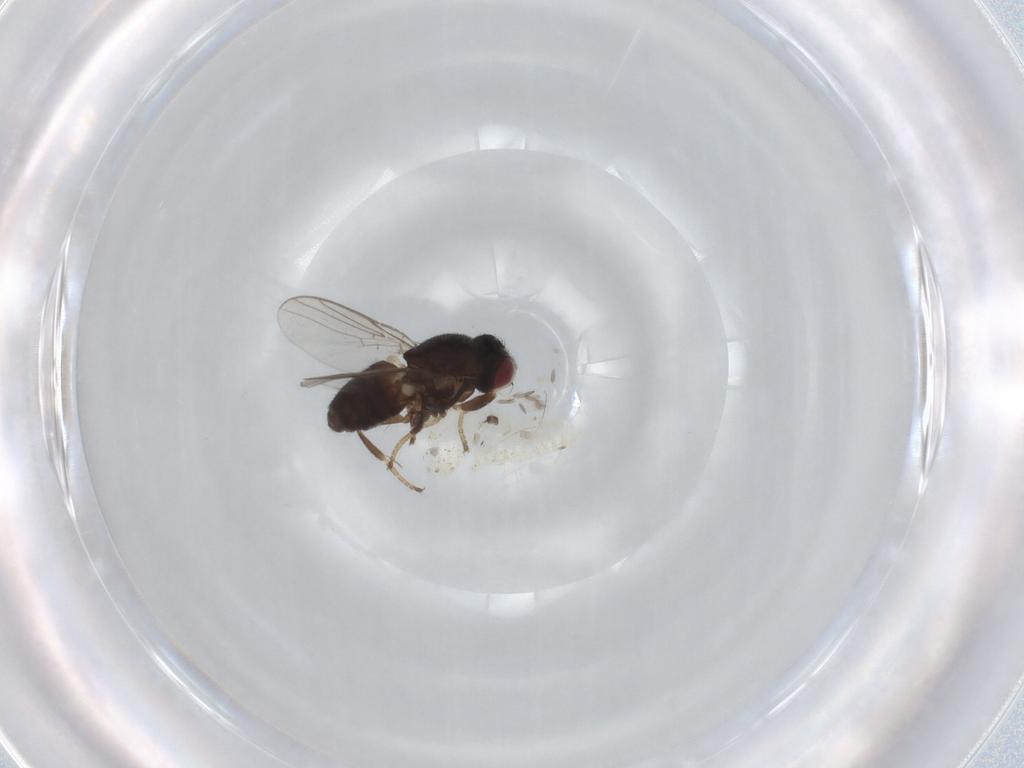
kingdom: Animalia
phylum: Arthropoda
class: Insecta
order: Diptera
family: Chloropidae
